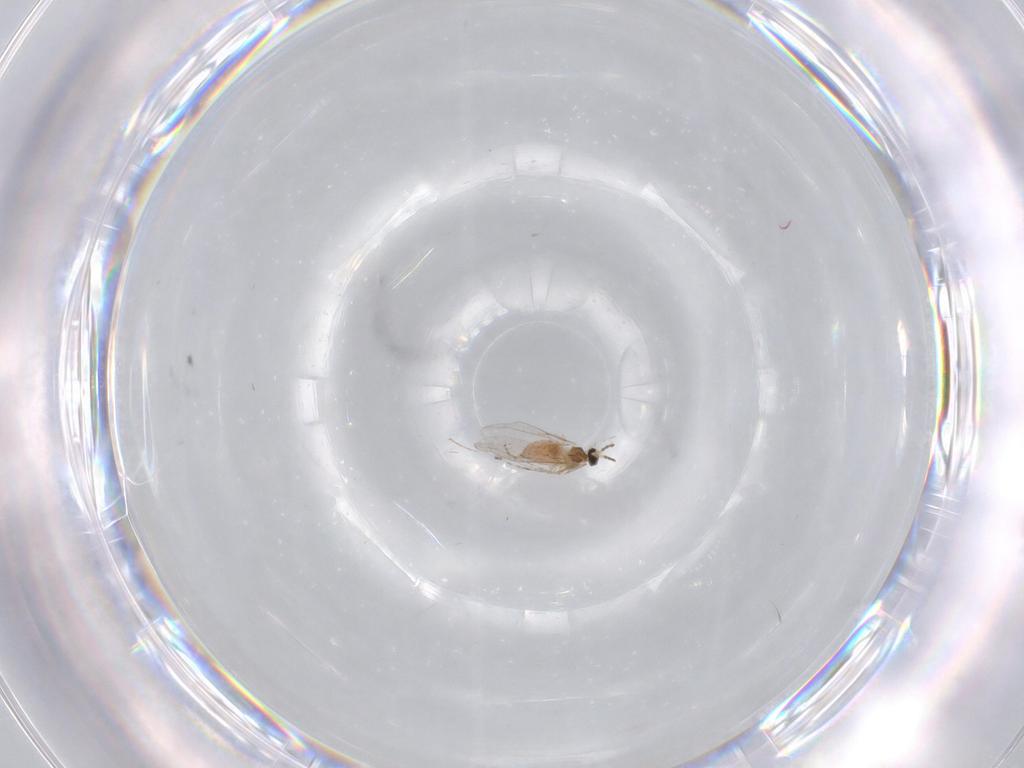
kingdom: Animalia
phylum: Arthropoda
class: Insecta
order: Diptera
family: Cecidomyiidae
